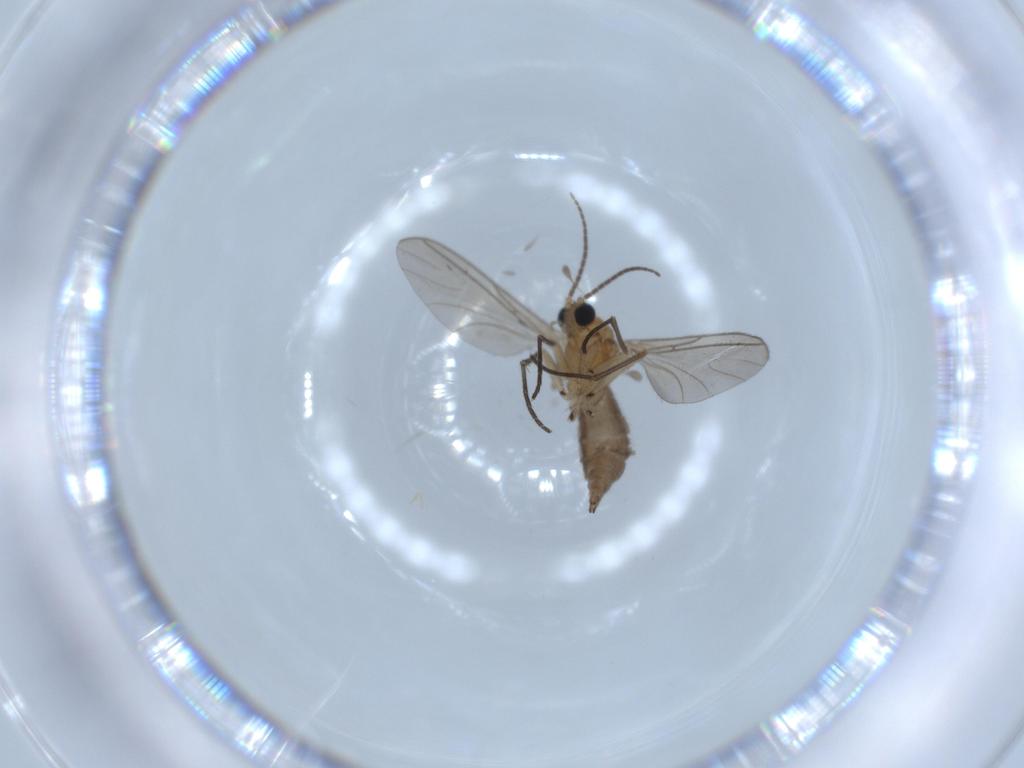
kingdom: Animalia
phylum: Arthropoda
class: Insecta
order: Diptera
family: Sciaridae
